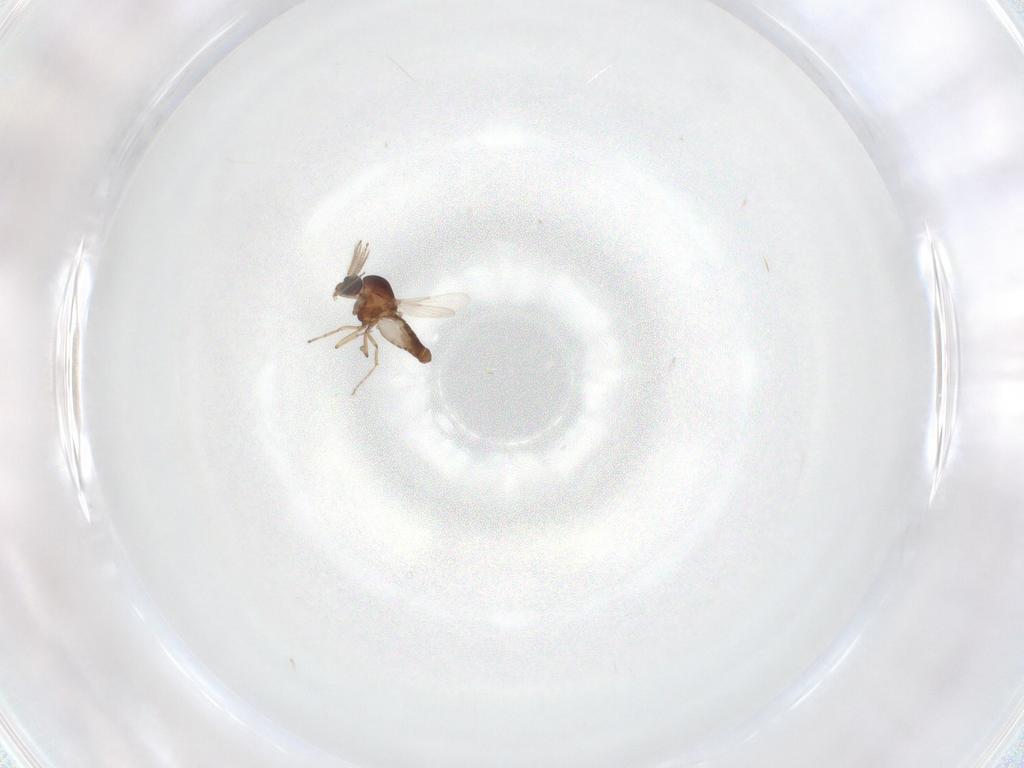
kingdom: Animalia
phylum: Arthropoda
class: Insecta
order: Diptera
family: Ceratopogonidae
